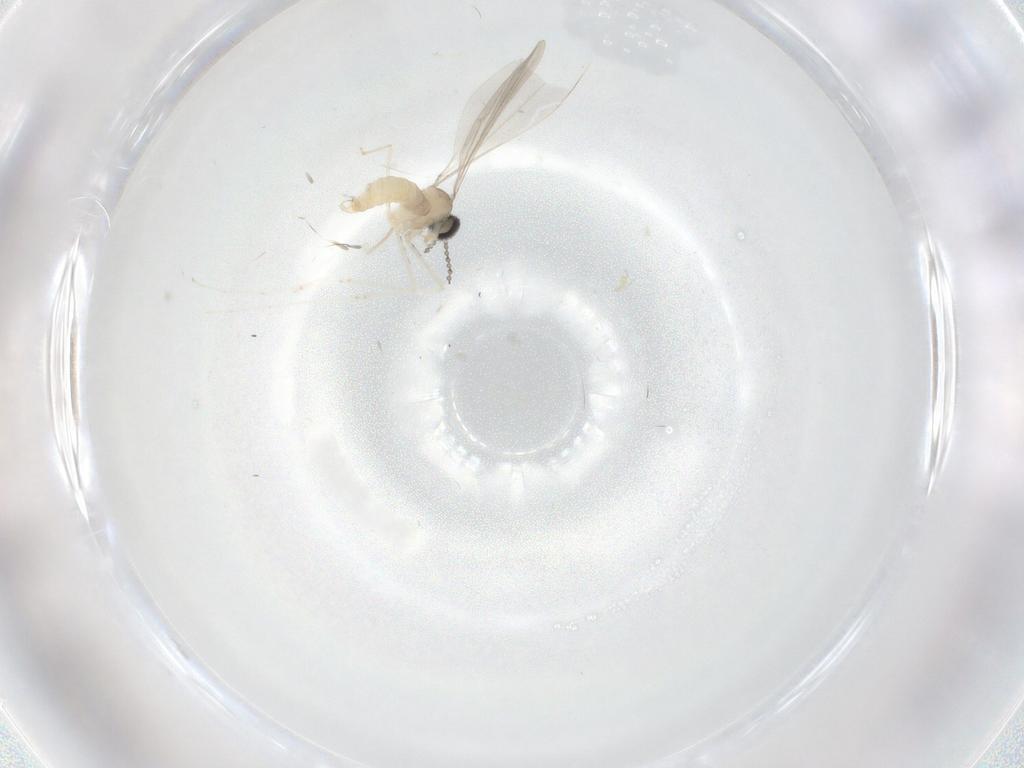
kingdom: Animalia
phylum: Arthropoda
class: Insecta
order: Diptera
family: Cecidomyiidae
